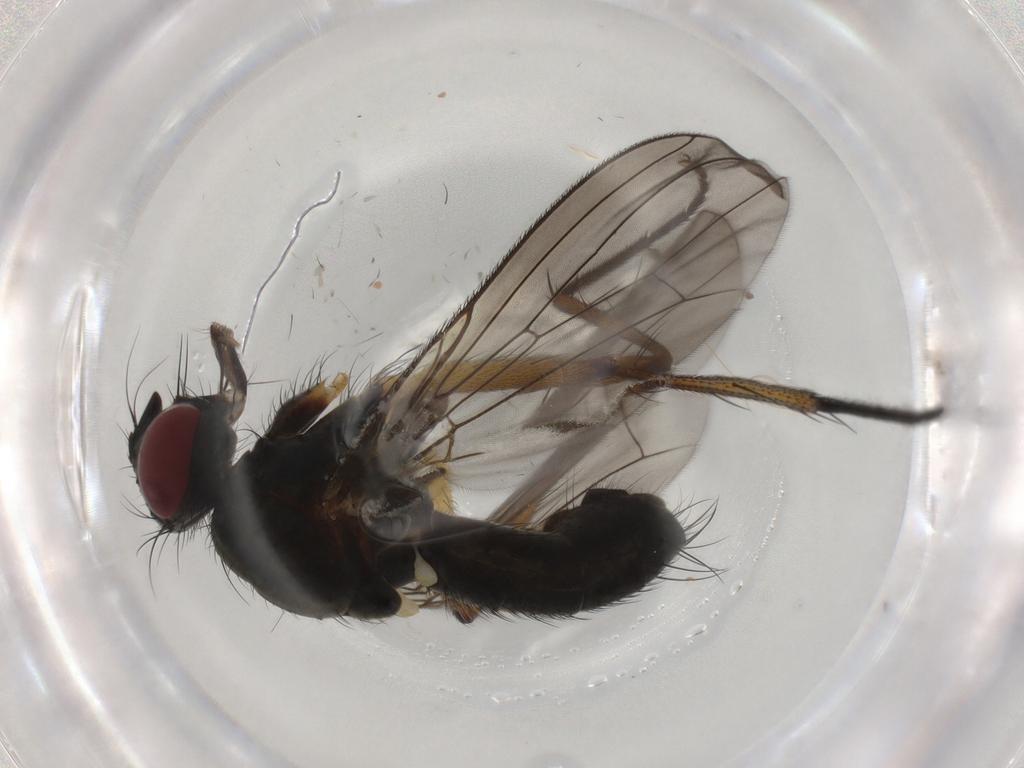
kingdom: Animalia
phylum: Arthropoda
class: Insecta
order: Diptera
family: Muscidae
